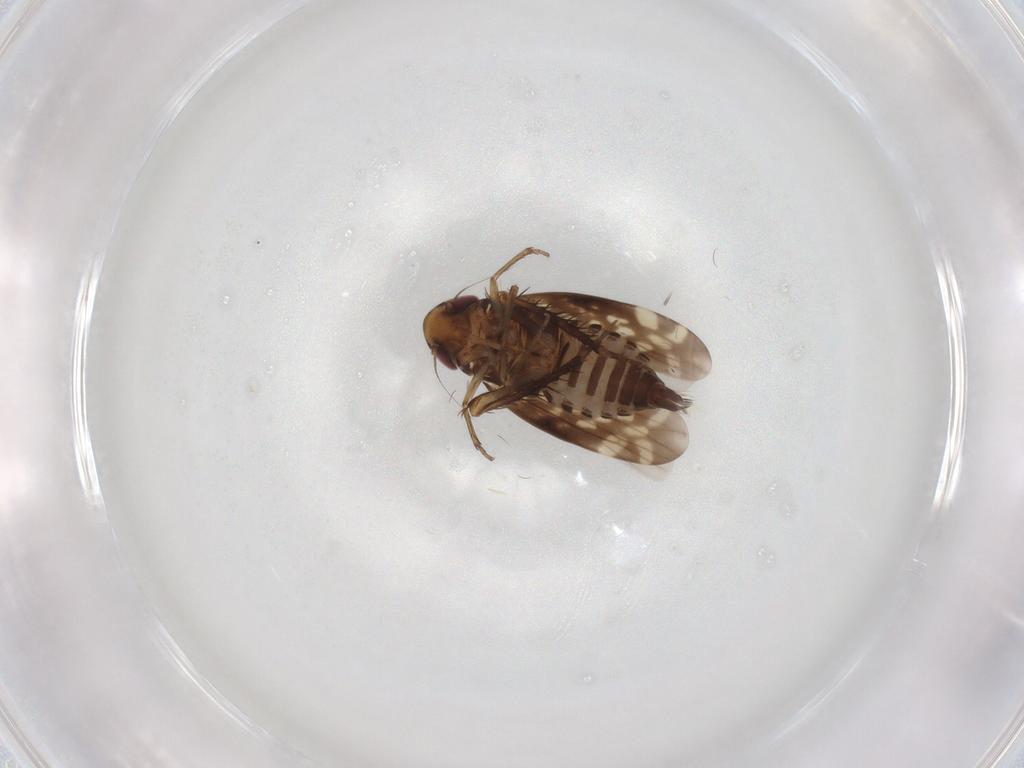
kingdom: Animalia
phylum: Arthropoda
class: Insecta
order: Hemiptera
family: Cicadellidae
